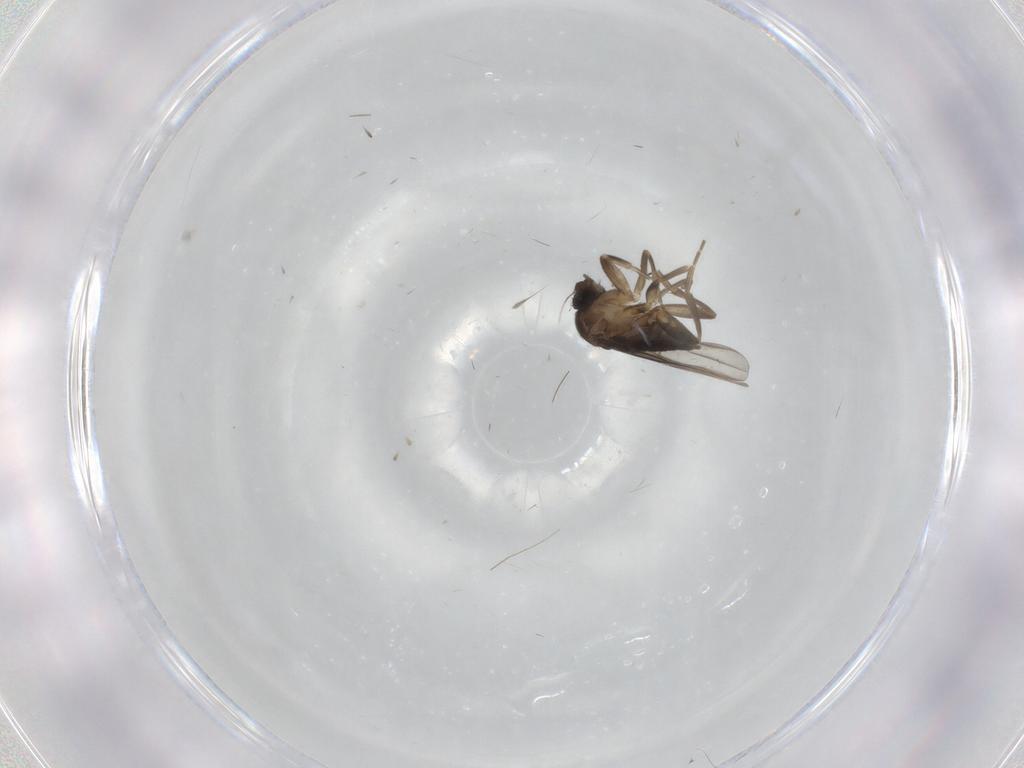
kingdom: Animalia
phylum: Arthropoda
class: Insecta
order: Diptera
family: Phoridae
